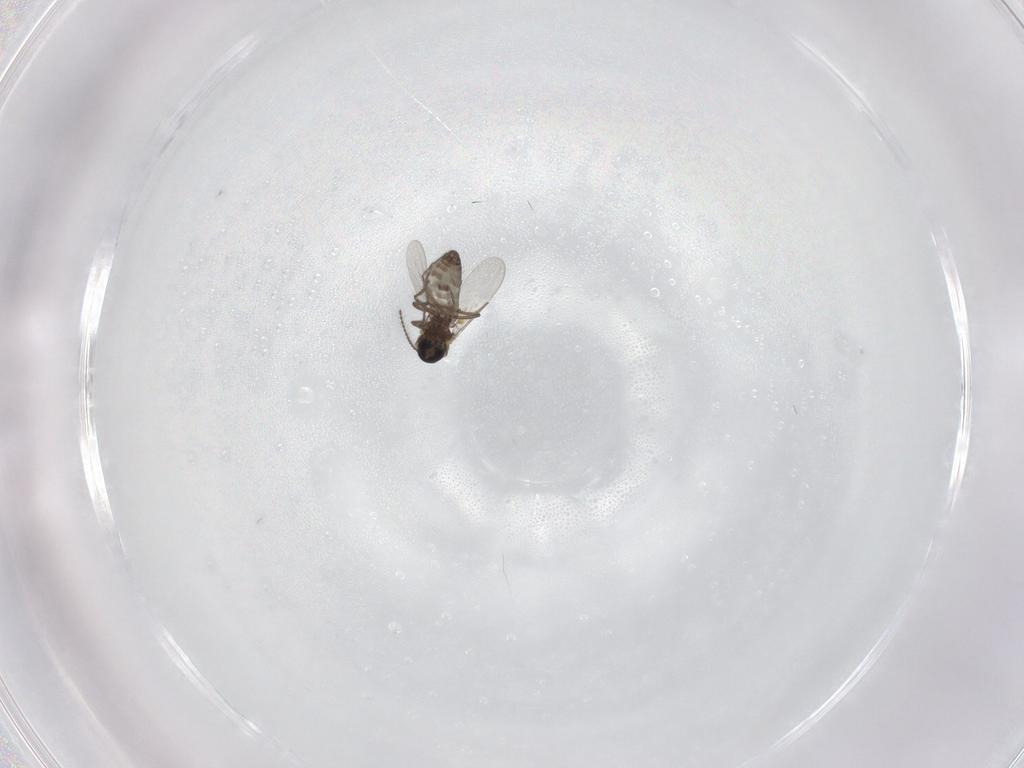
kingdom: Animalia
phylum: Arthropoda
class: Insecta
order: Diptera
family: Ceratopogonidae
